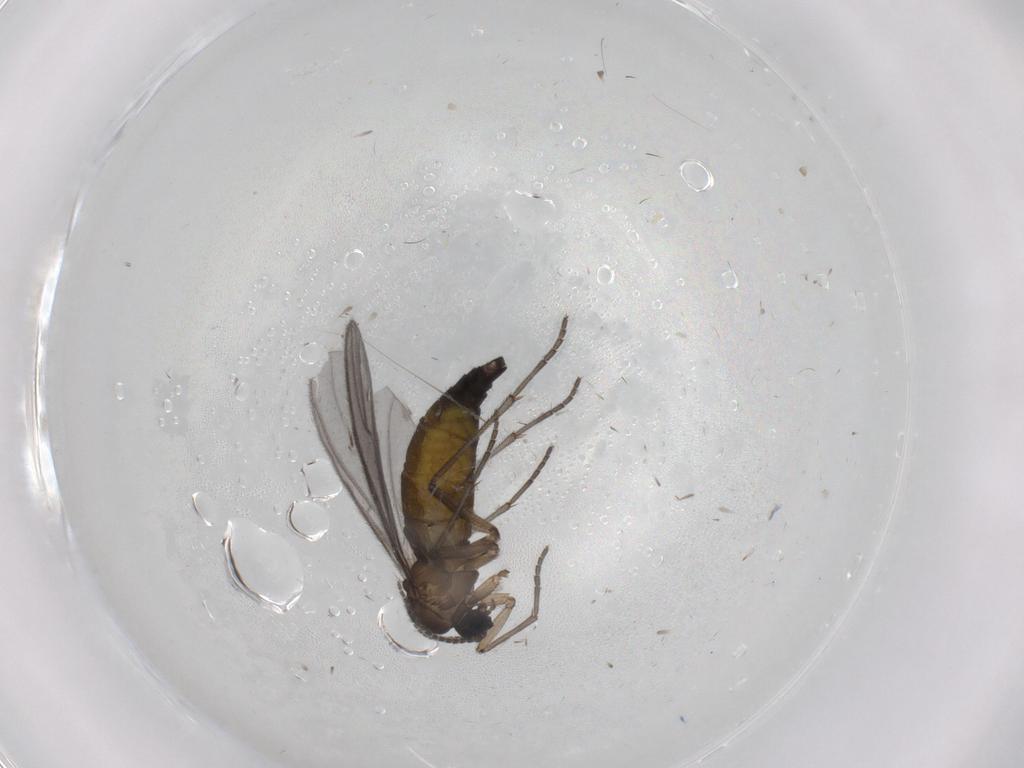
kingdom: Animalia
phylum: Arthropoda
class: Insecta
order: Diptera
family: Sciaridae
